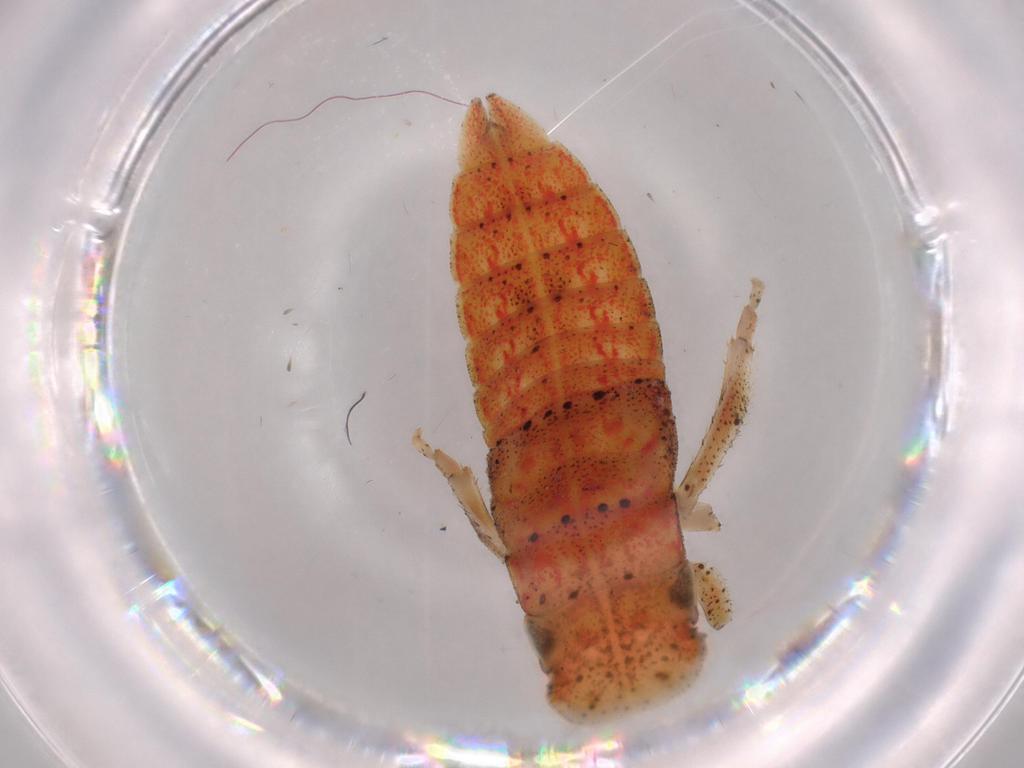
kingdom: Animalia
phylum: Arthropoda
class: Insecta
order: Hemiptera
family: Cicadellidae
